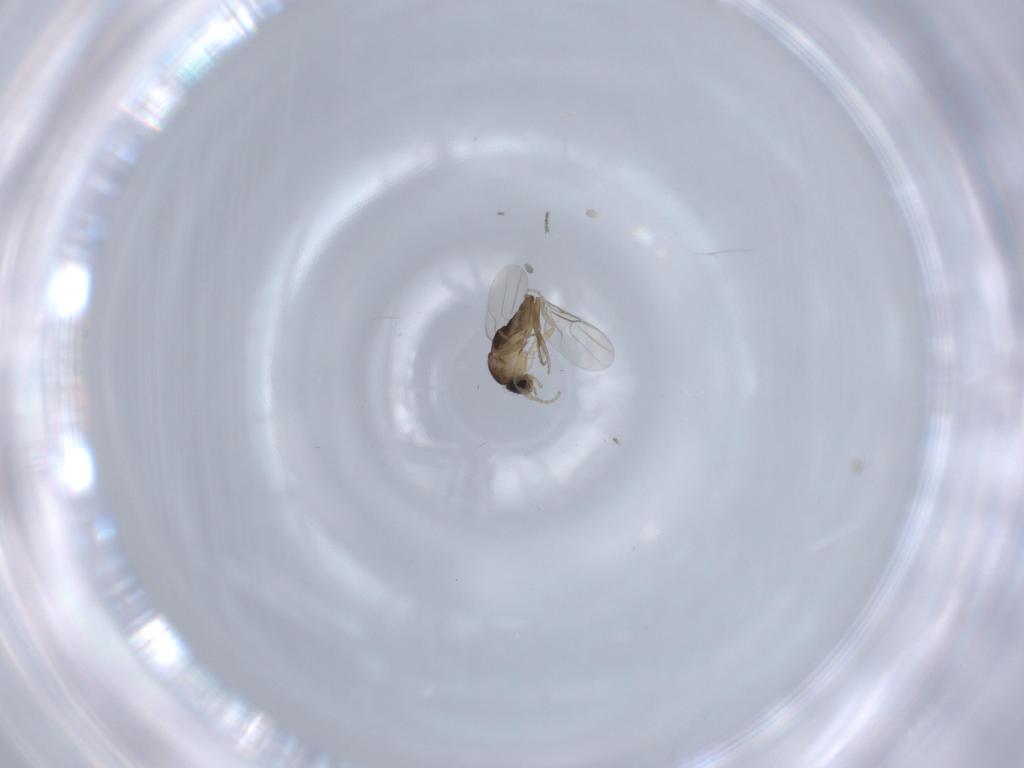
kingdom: Animalia
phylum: Arthropoda
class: Insecta
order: Diptera
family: Phoridae
